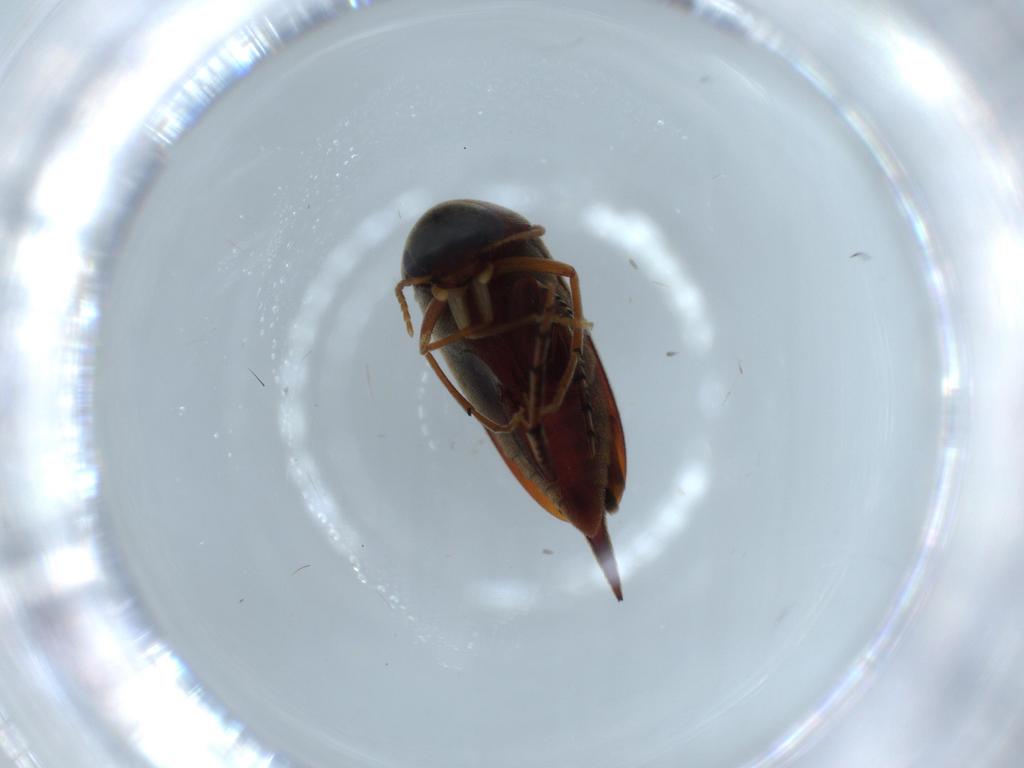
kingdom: Animalia
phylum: Arthropoda
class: Insecta
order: Coleoptera
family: Mordellidae
